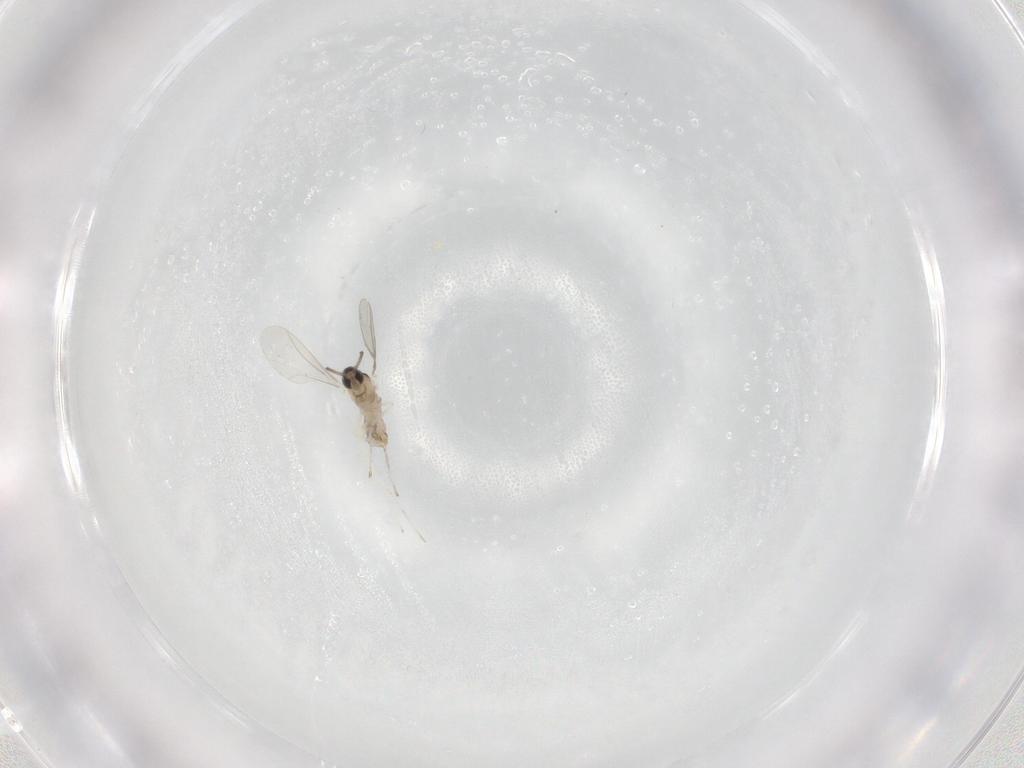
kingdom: Animalia
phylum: Arthropoda
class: Insecta
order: Diptera
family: Cecidomyiidae
